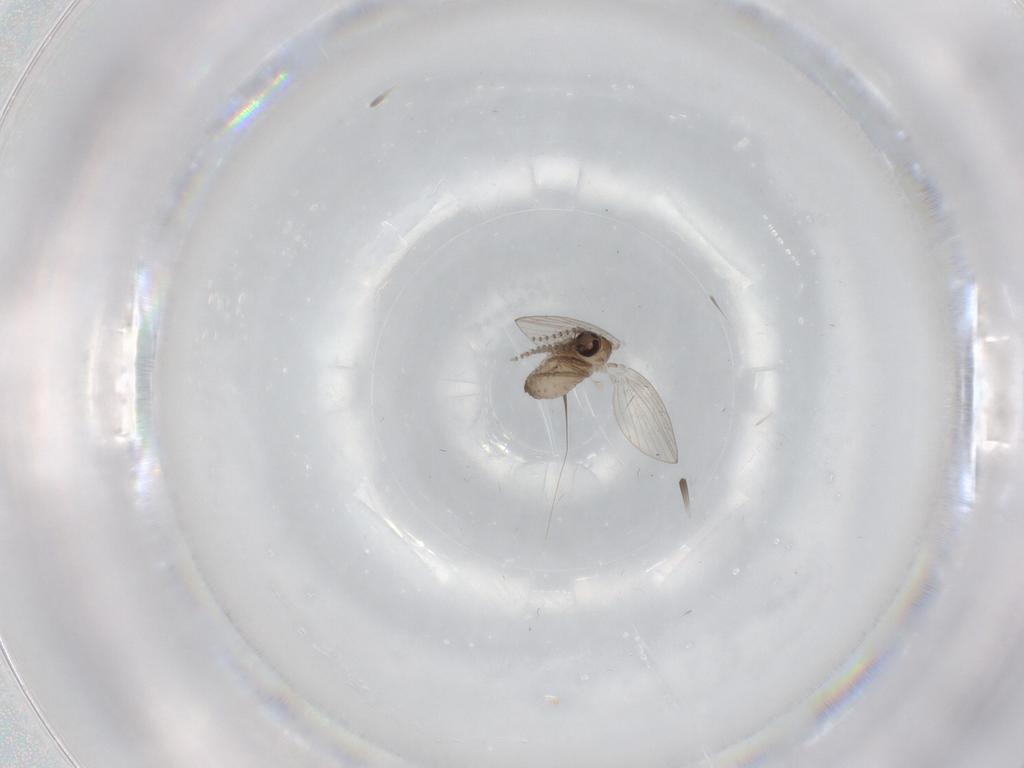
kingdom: Animalia
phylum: Arthropoda
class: Insecta
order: Diptera
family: Psychodidae
